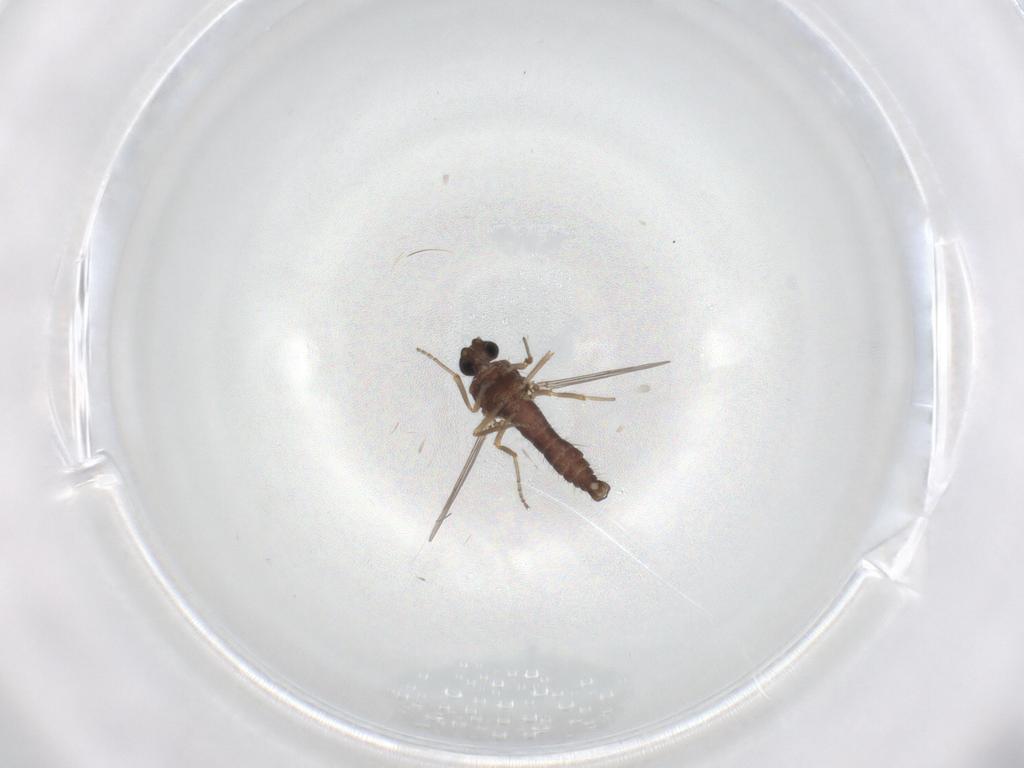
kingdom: Animalia
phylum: Arthropoda
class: Insecta
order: Diptera
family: Ceratopogonidae
